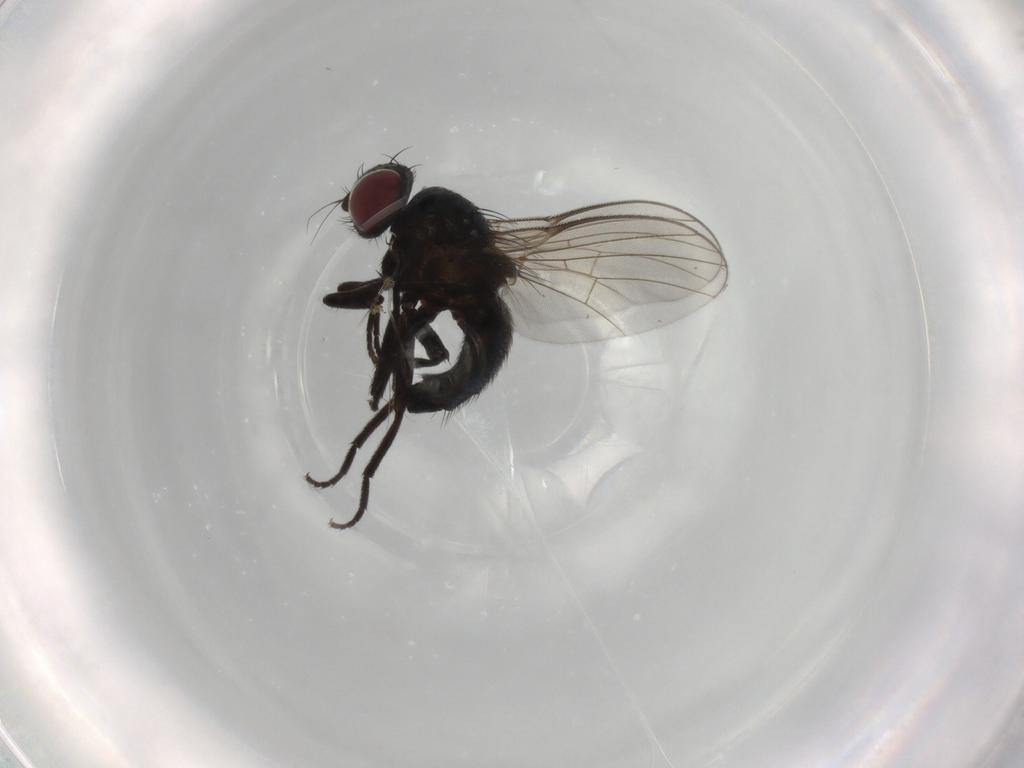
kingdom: Animalia
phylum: Arthropoda
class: Insecta
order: Diptera
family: Agromyzidae
